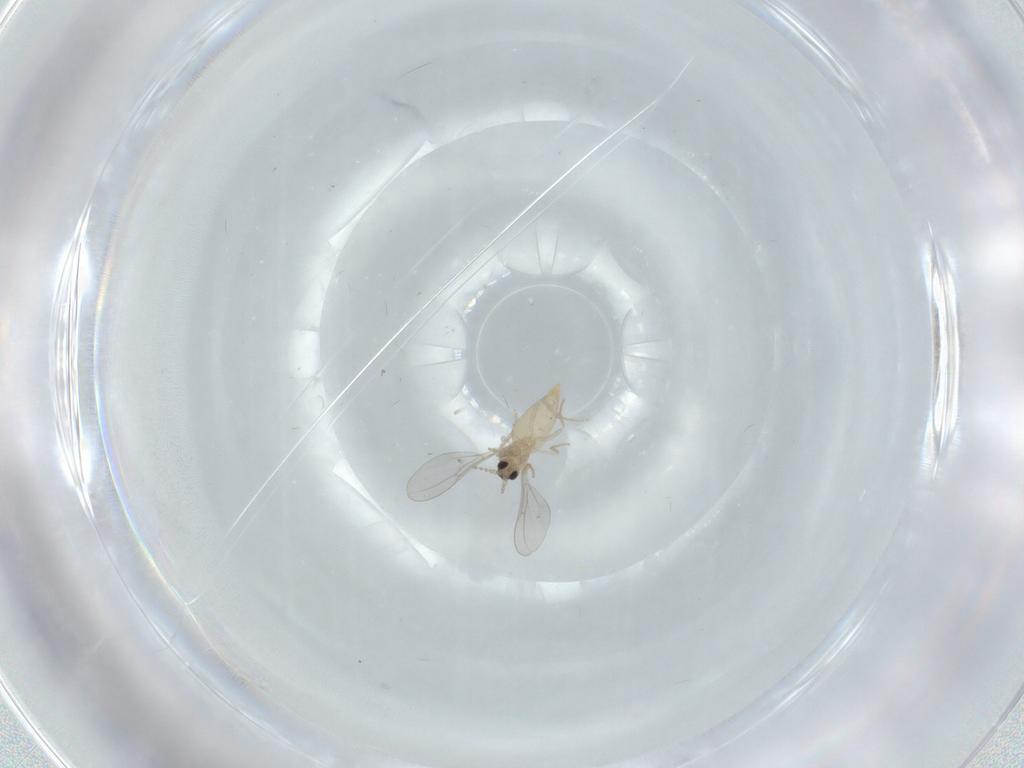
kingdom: Animalia
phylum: Arthropoda
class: Insecta
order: Diptera
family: Cecidomyiidae
